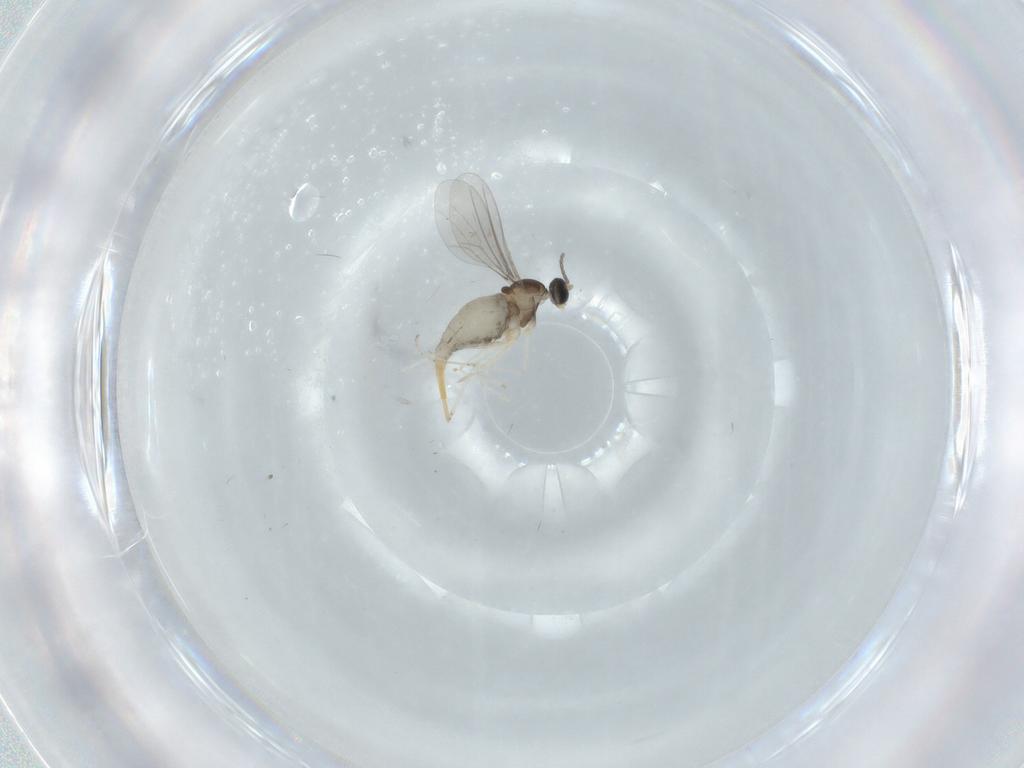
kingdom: Animalia
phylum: Arthropoda
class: Insecta
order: Diptera
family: Cecidomyiidae
